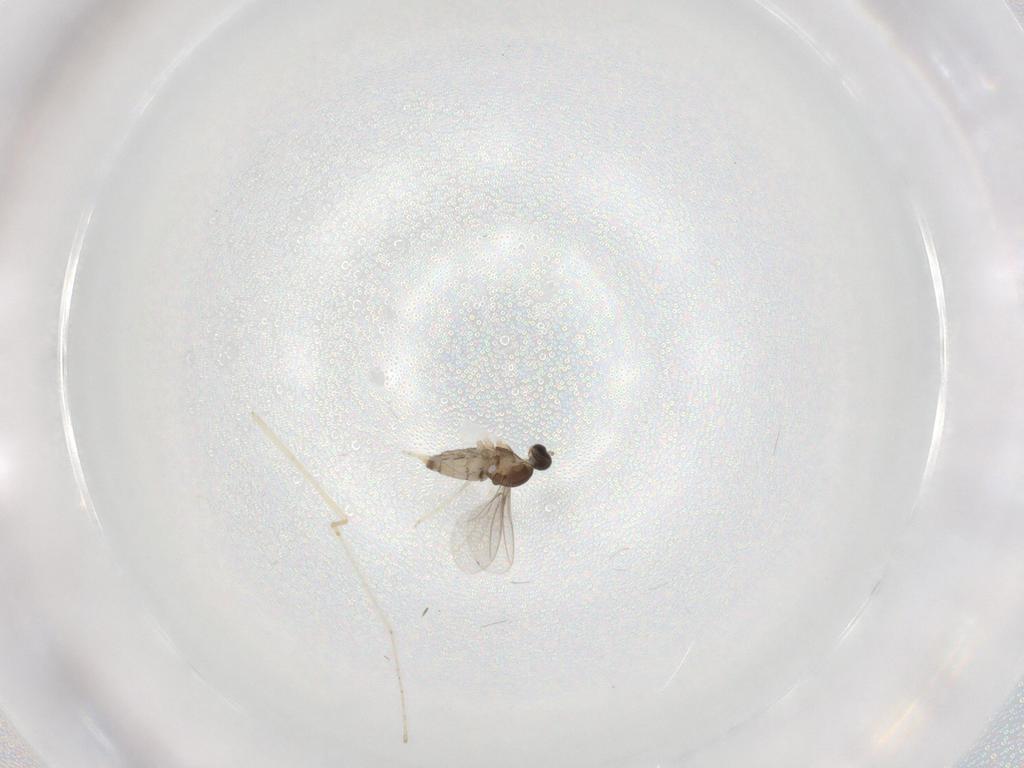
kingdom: Animalia
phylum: Arthropoda
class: Insecta
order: Diptera
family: Cecidomyiidae
